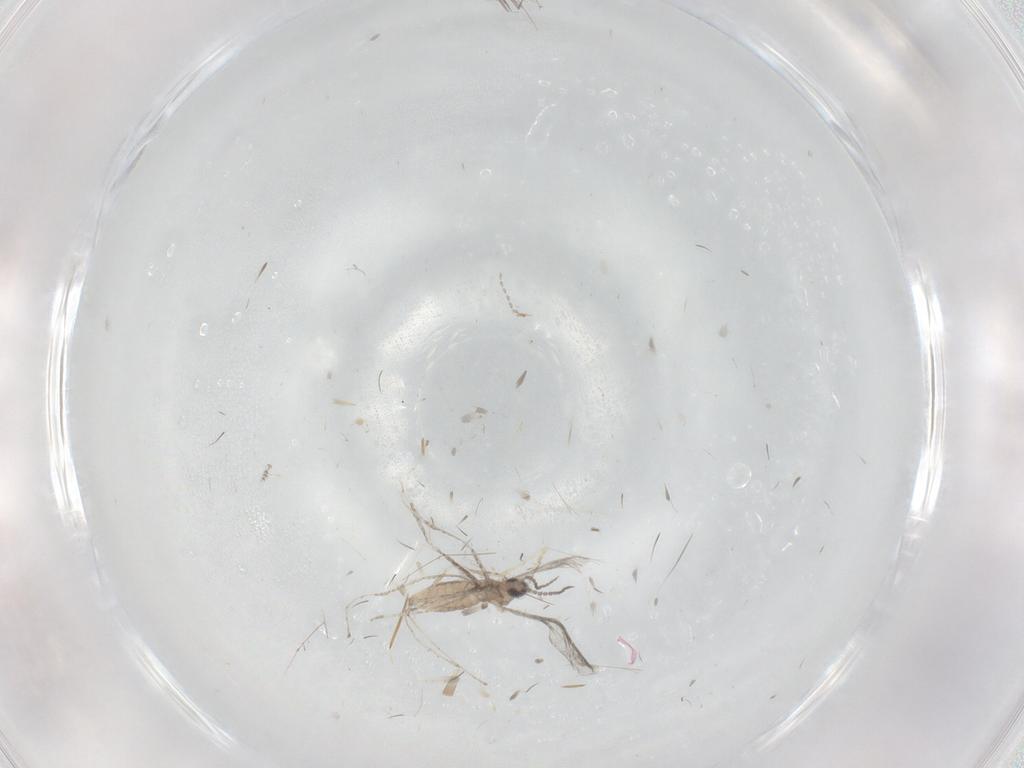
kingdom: Animalia
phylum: Arthropoda
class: Insecta
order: Diptera
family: Cecidomyiidae
